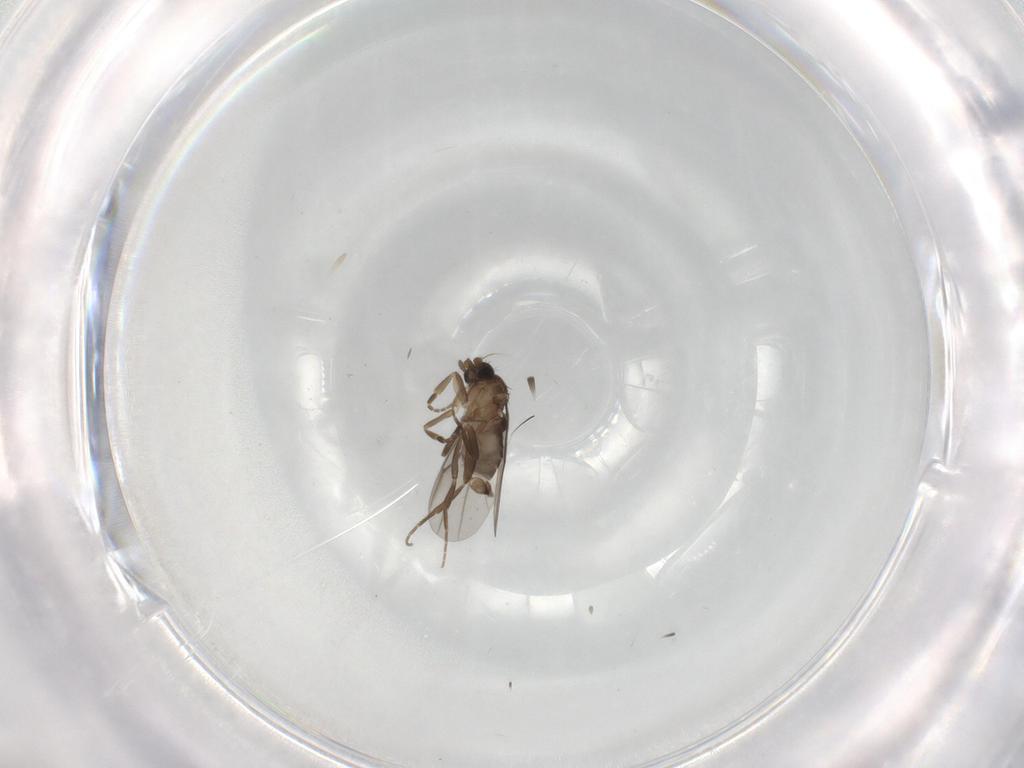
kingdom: Animalia
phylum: Arthropoda
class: Insecta
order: Diptera
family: Phoridae
